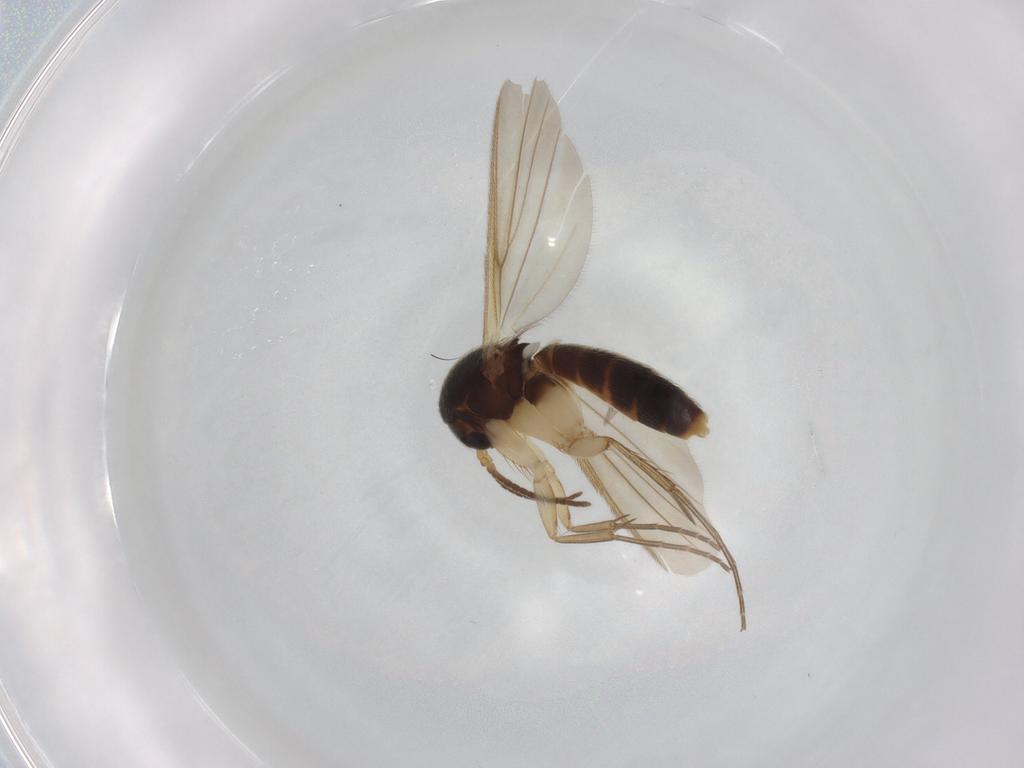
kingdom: Animalia
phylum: Arthropoda
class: Insecta
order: Diptera
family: Mycetophilidae
